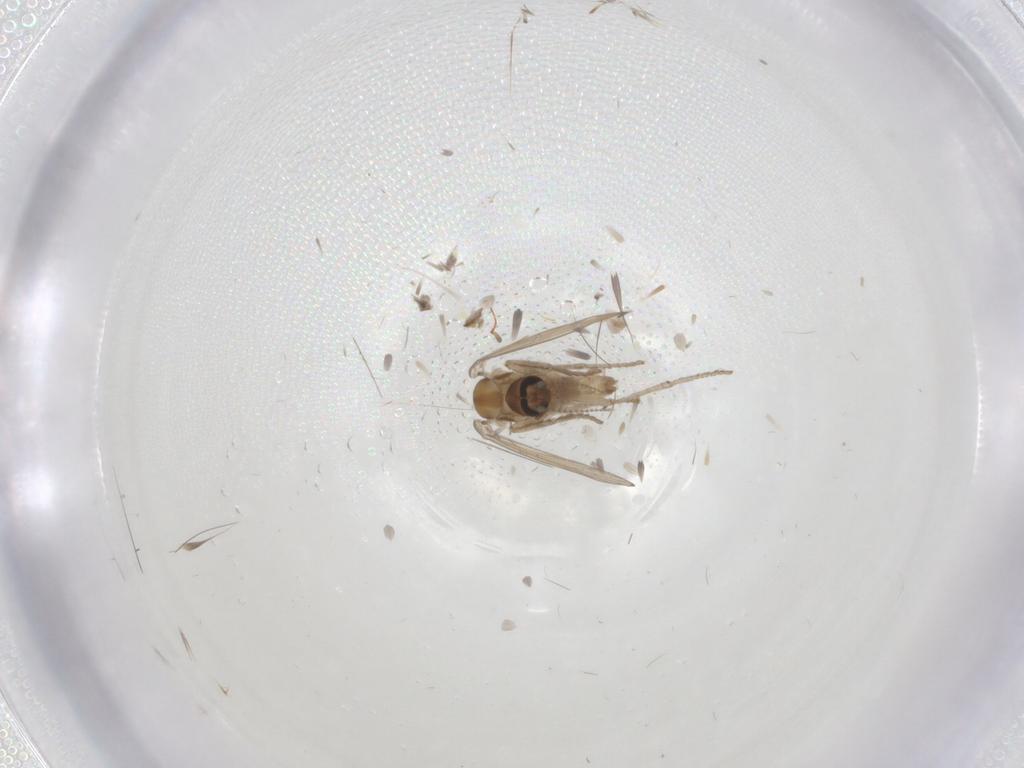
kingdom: Animalia
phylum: Arthropoda
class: Insecta
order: Diptera
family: Psychodidae
